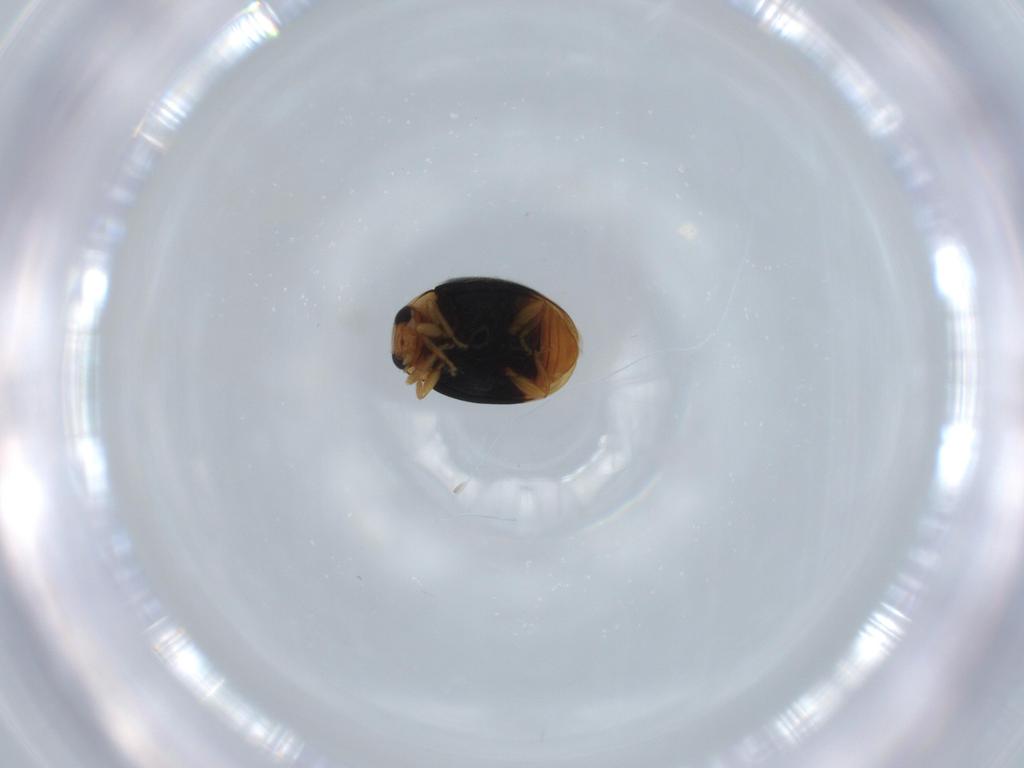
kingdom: Animalia
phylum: Arthropoda
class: Insecta
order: Coleoptera
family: Coccinellidae
